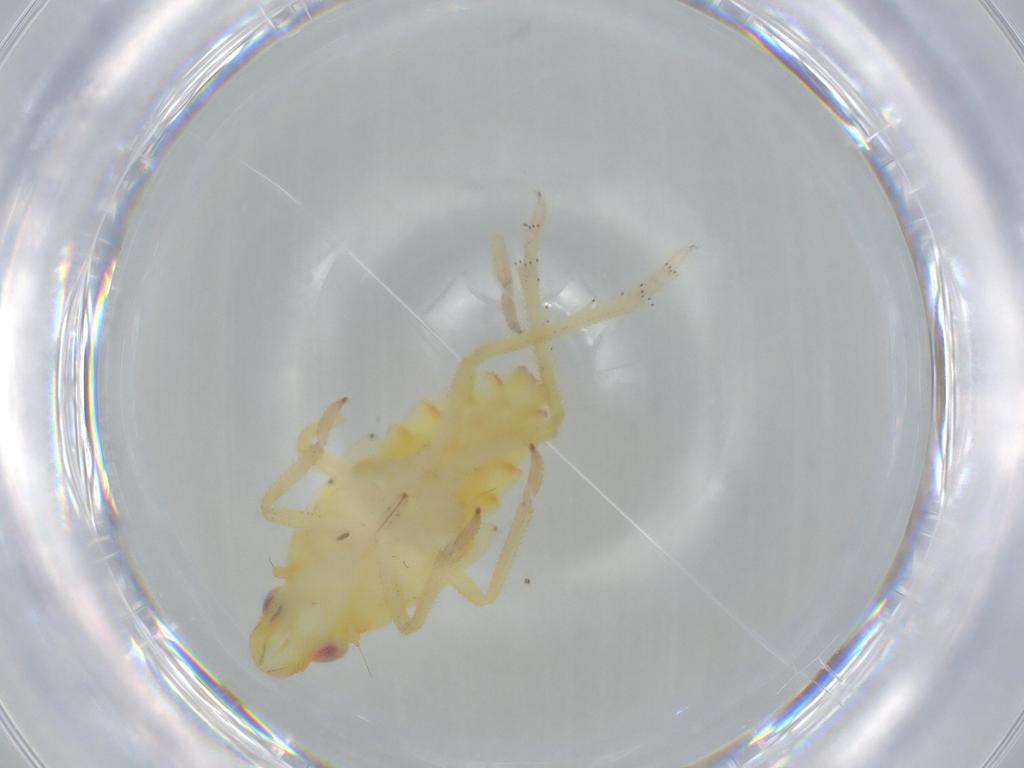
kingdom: Animalia
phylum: Arthropoda
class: Insecta
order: Hemiptera
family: Tropiduchidae
